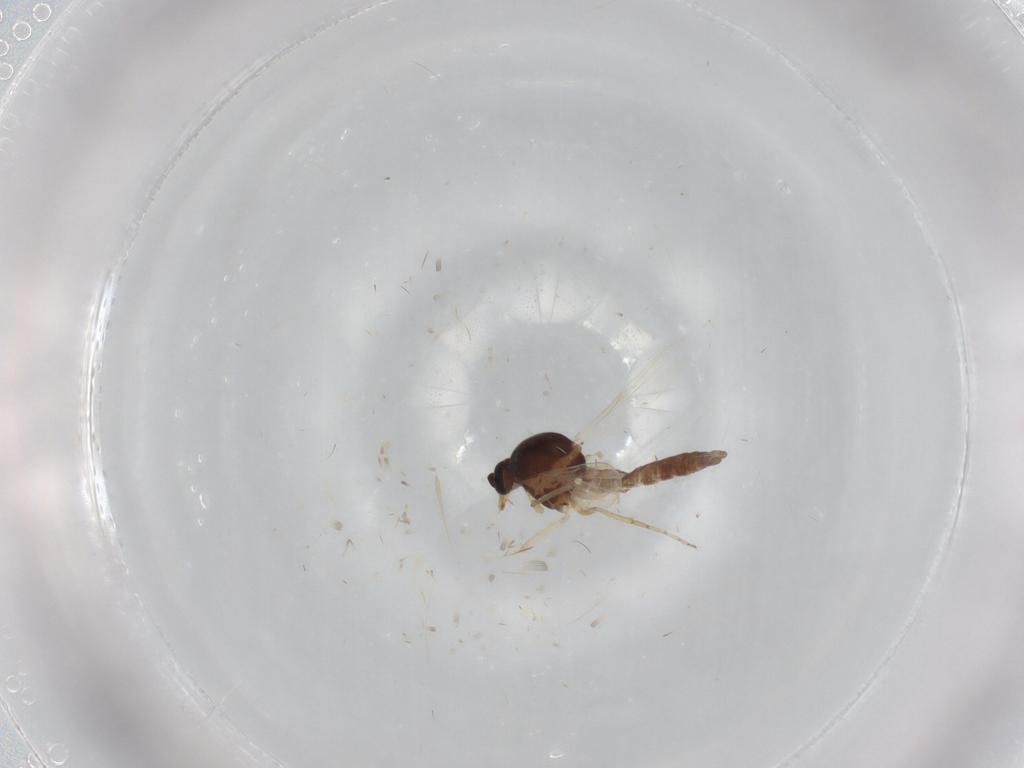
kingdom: Animalia
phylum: Arthropoda
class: Insecta
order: Diptera
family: Ceratopogonidae
